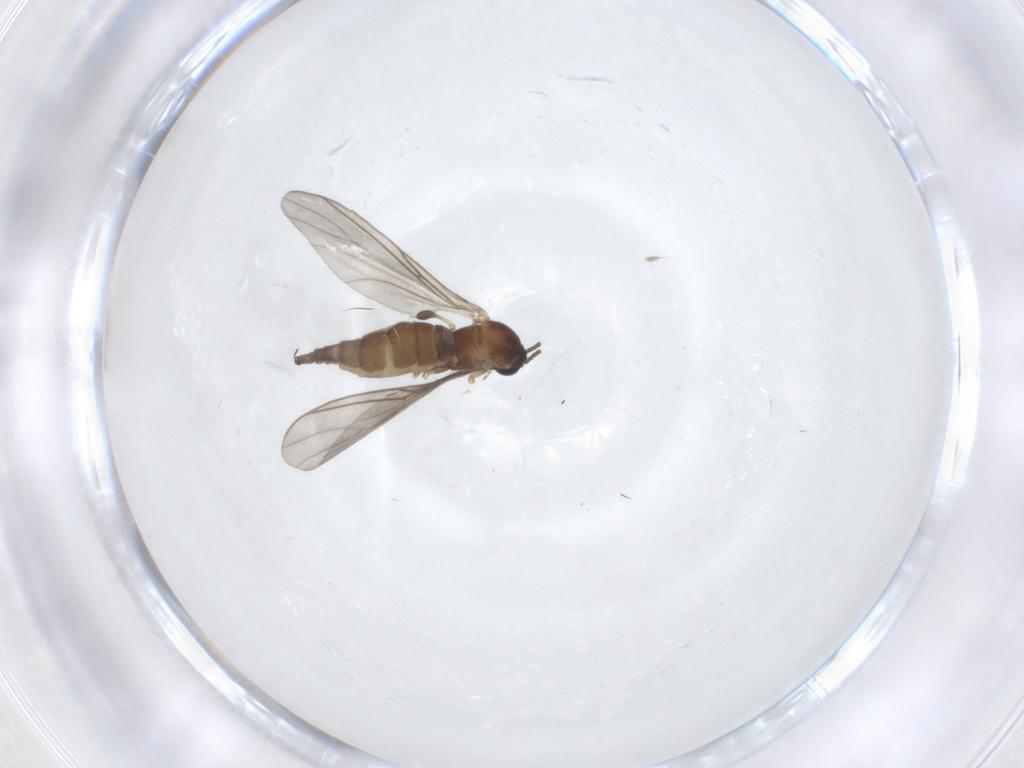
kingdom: Animalia
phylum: Arthropoda
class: Insecta
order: Diptera
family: Sciaridae
